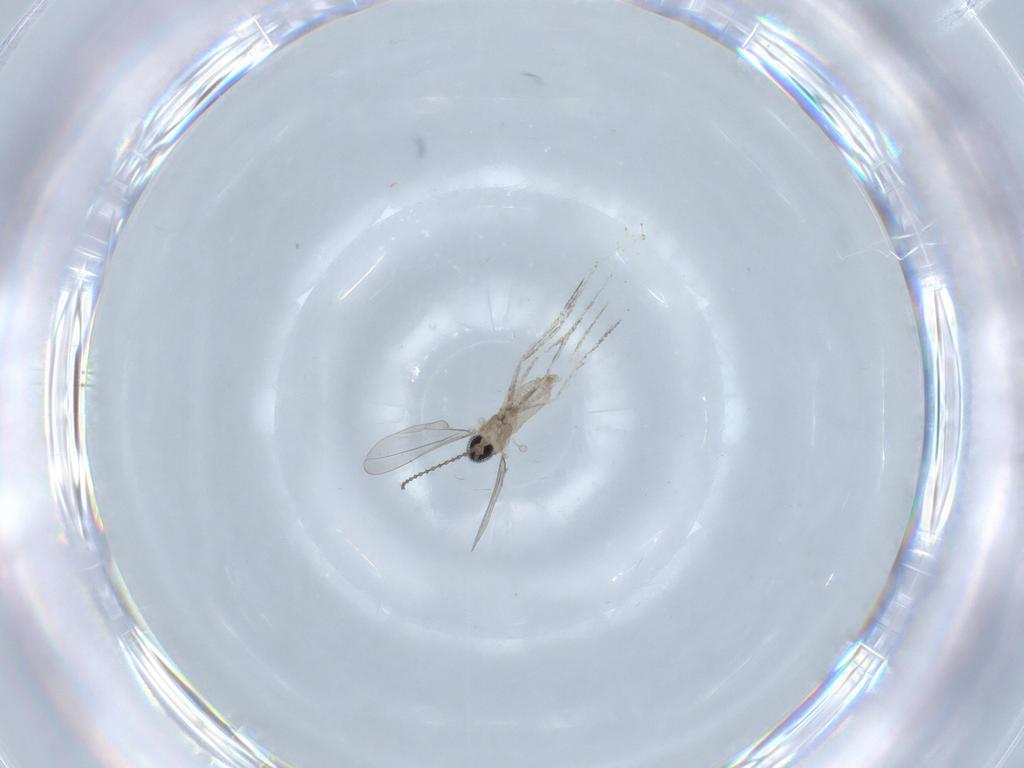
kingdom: Animalia
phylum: Arthropoda
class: Insecta
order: Diptera
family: Cecidomyiidae
